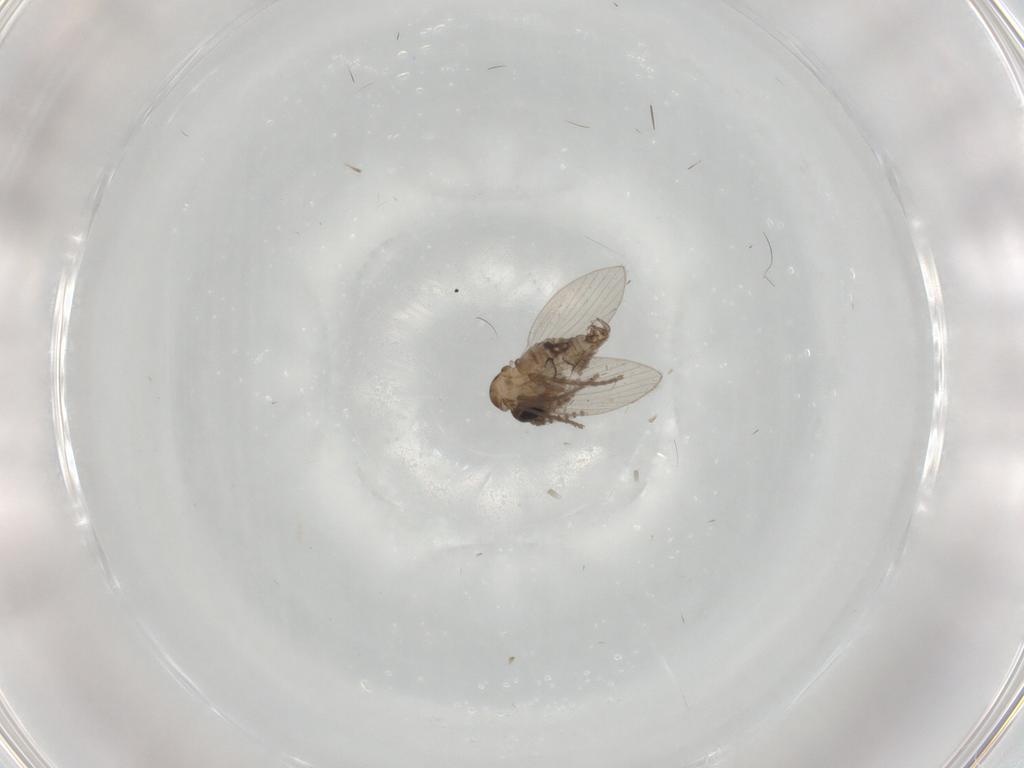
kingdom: Animalia
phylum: Arthropoda
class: Insecta
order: Diptera
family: Psychodidae
